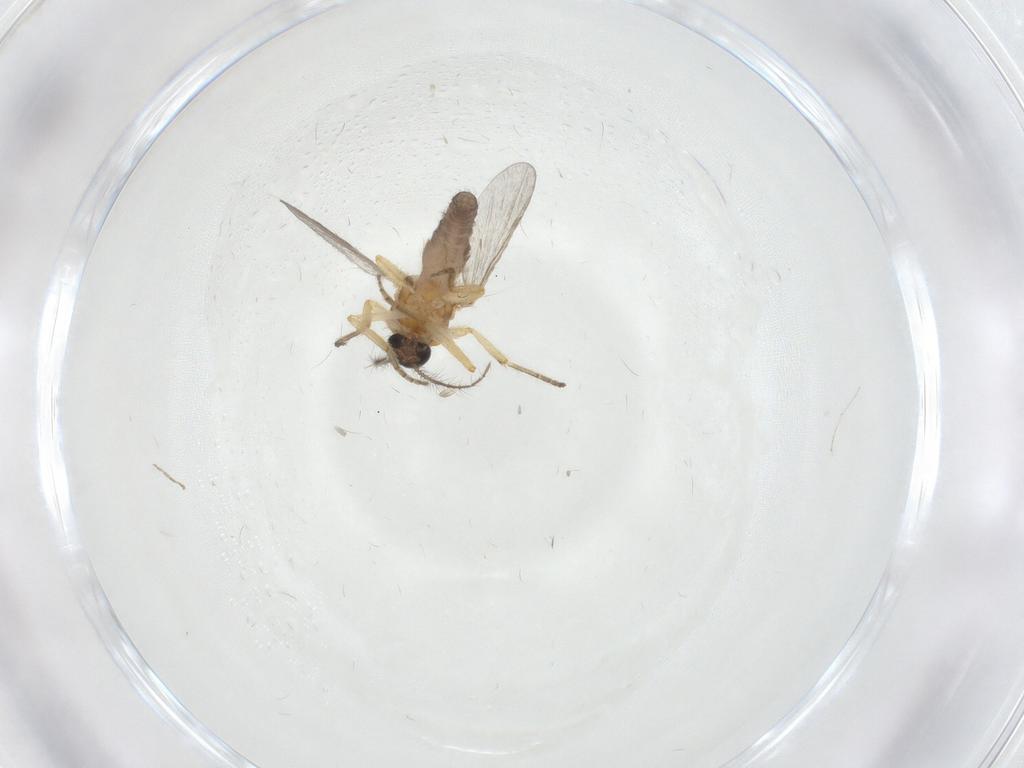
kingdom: Animalia
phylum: Arthropoda
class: Insecta
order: Diptera
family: Ceratopogonidae
